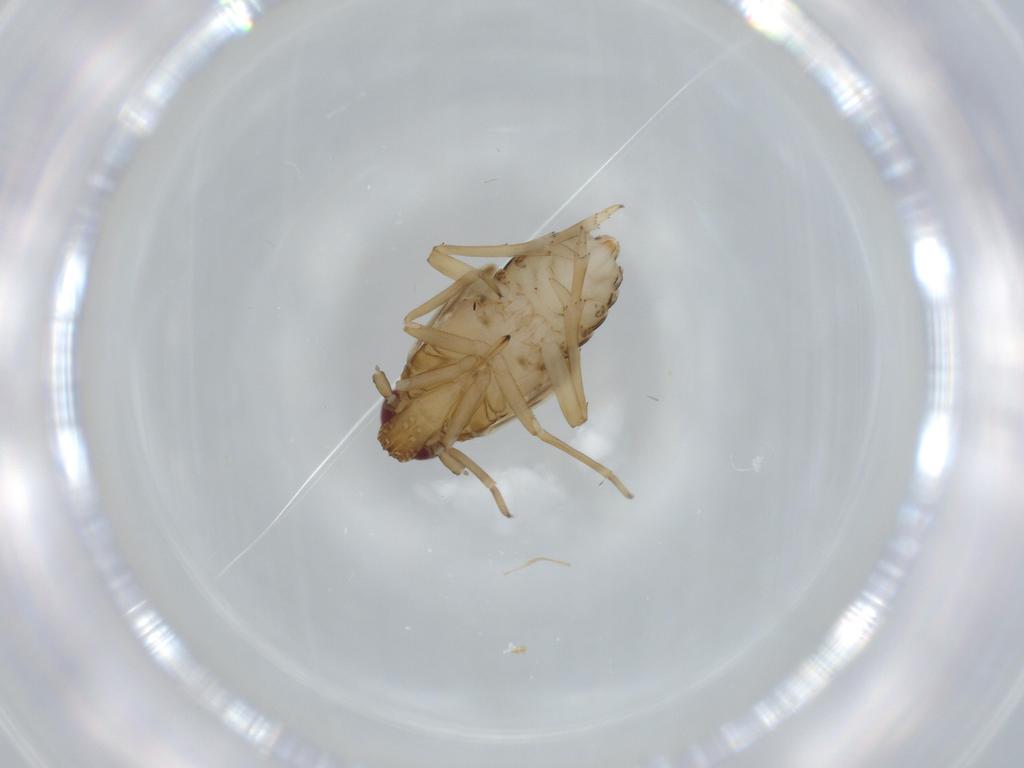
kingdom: Animalia
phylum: Arthropoda
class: Insecta
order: Hemiptera
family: Delphacidae
